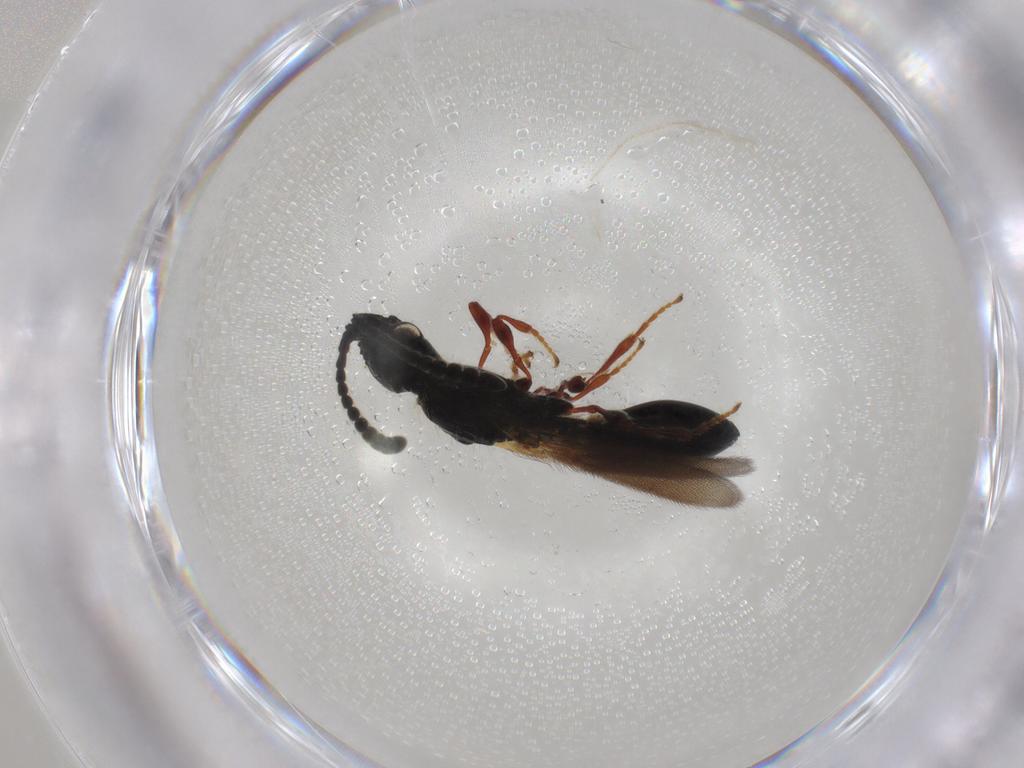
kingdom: Animalia
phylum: Arthropoda
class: Insecta
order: Hymenoptera
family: Diapriidae
